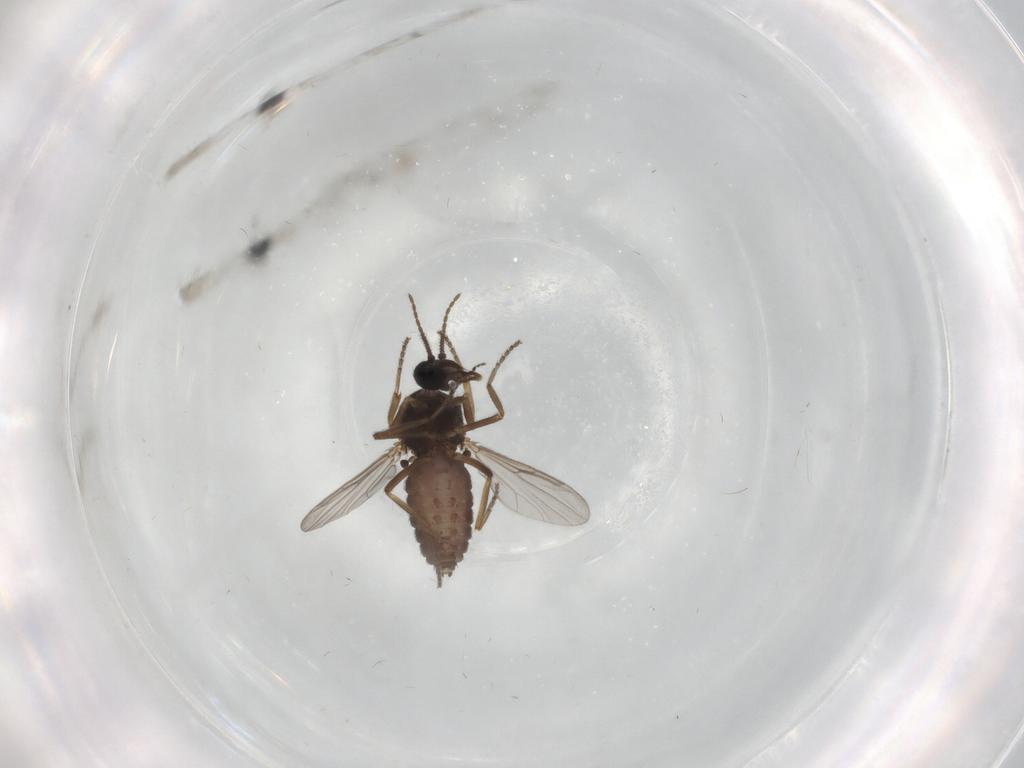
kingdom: Animalia
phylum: Arthropoda
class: Insecta
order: Diptera
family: Ceratopogonidae
